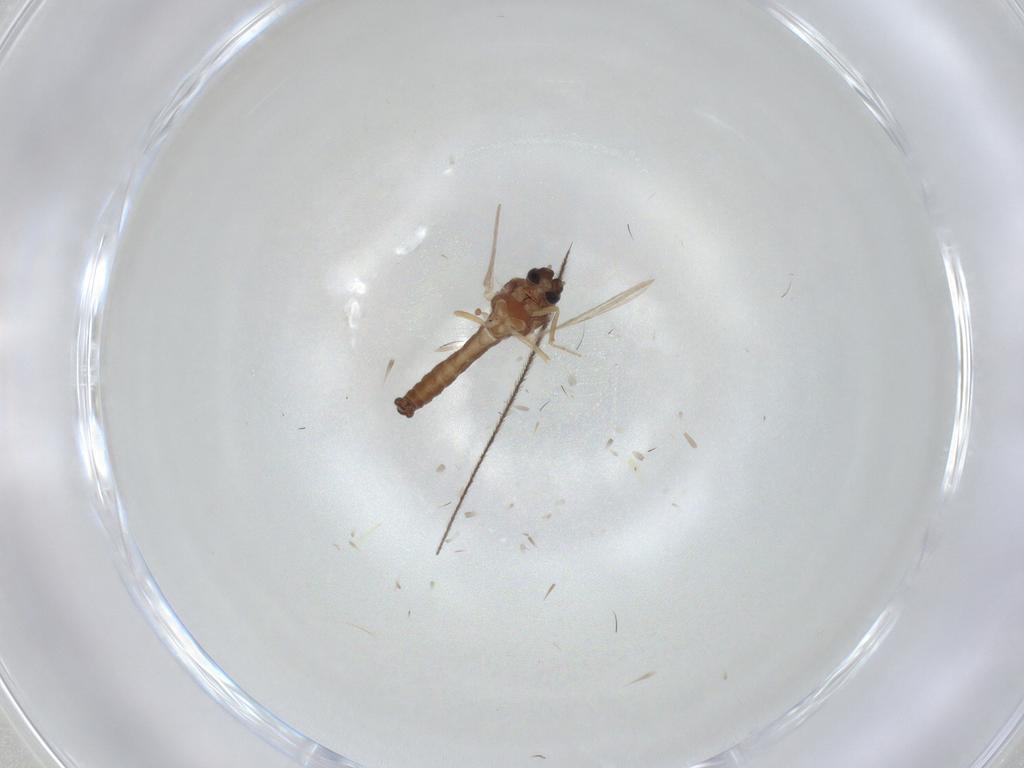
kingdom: Animalia
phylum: Arthropoda
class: Insecta
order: Diptera
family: Ceratopogonidae
